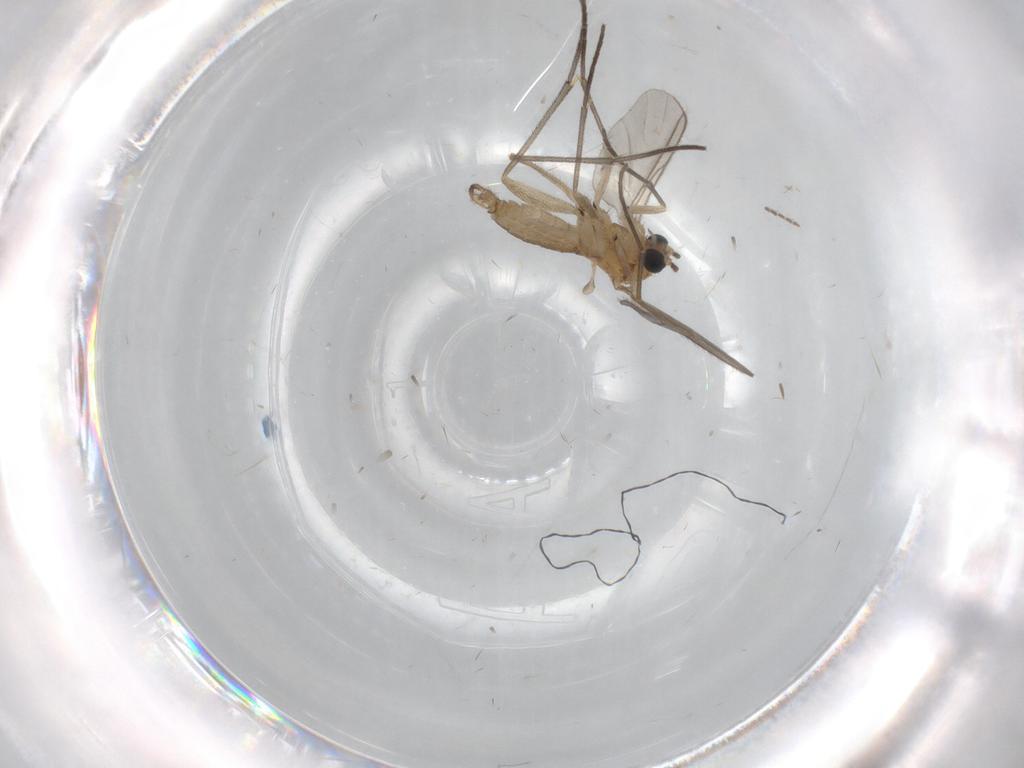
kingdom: Animalia
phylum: Arthropoda
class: Insecta
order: Diptera
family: Sciaridae
